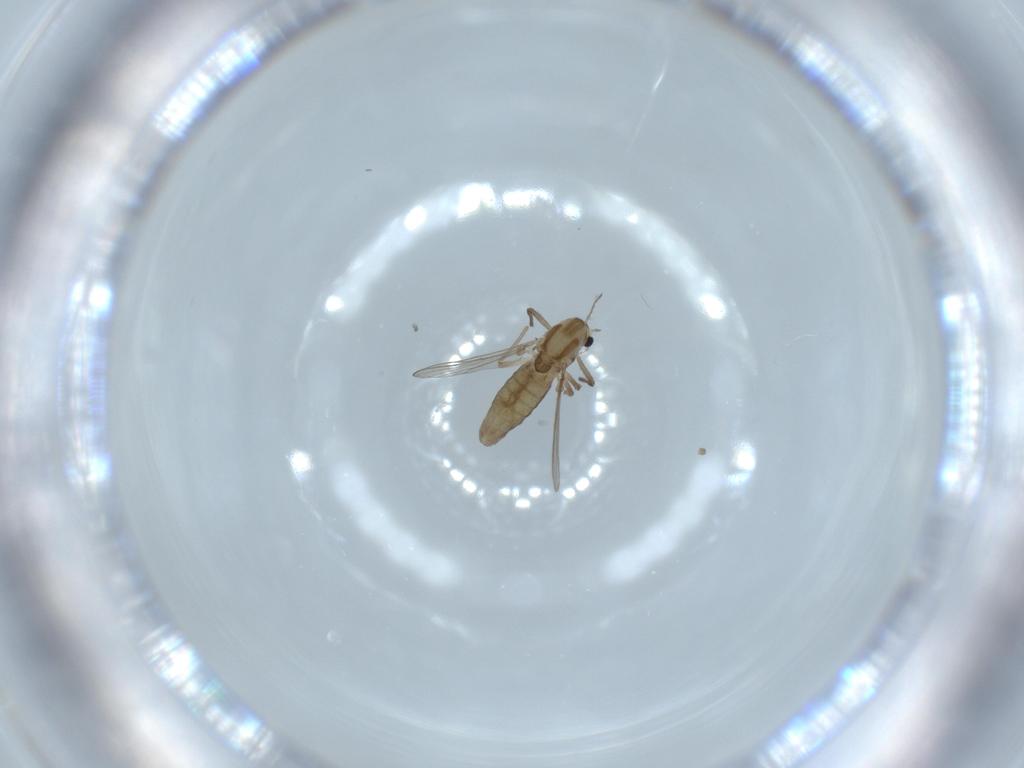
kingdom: Animalia
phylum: Arthropoda
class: Insecta
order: Diptera
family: Chironomidae
